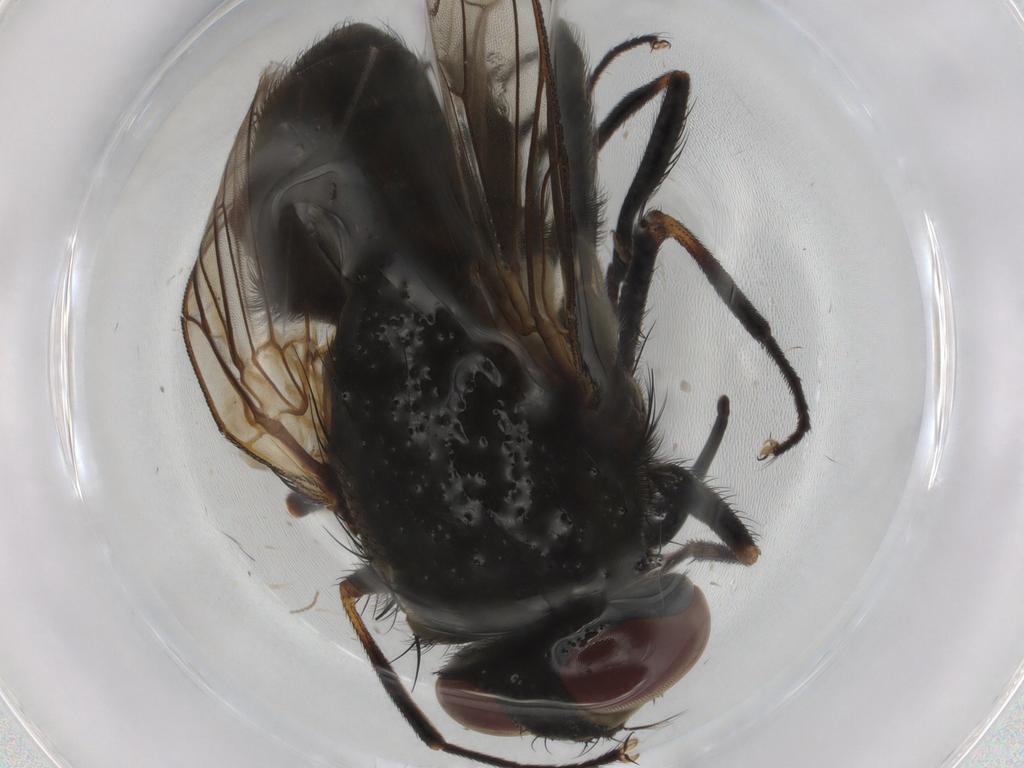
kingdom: Animalia
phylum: Arthropoda
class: Insecta
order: Diptera
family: Muscidae
